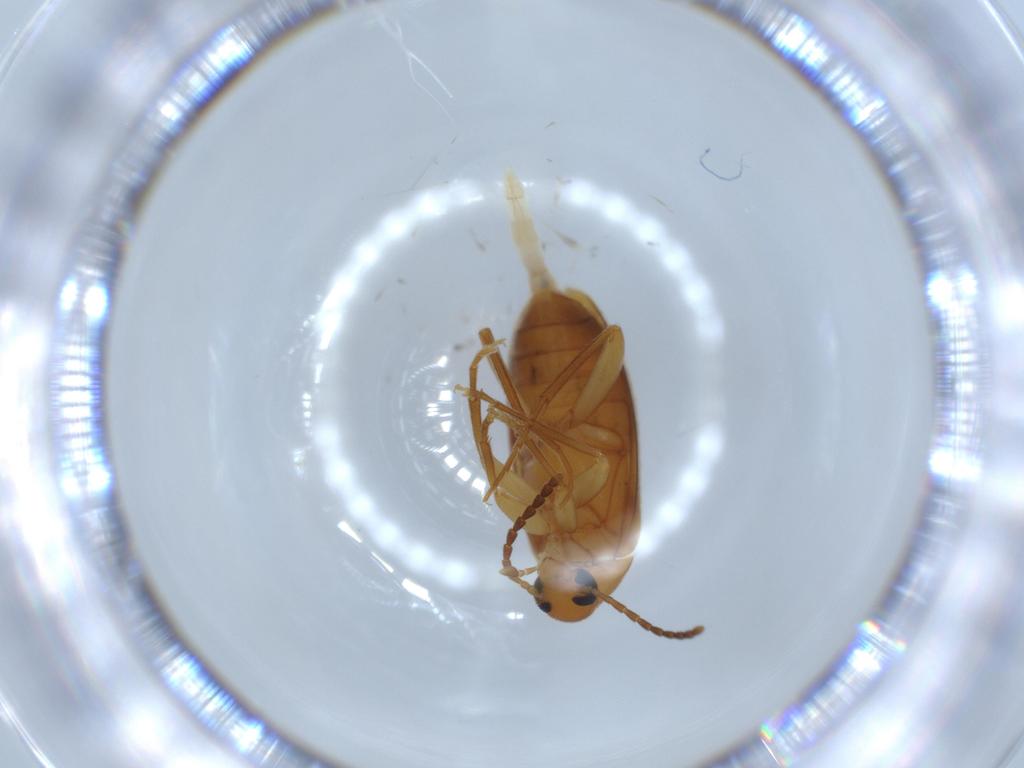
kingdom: Animalia
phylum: Arthropoda
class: Insecta
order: Coleoptera
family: Scraptiidae
